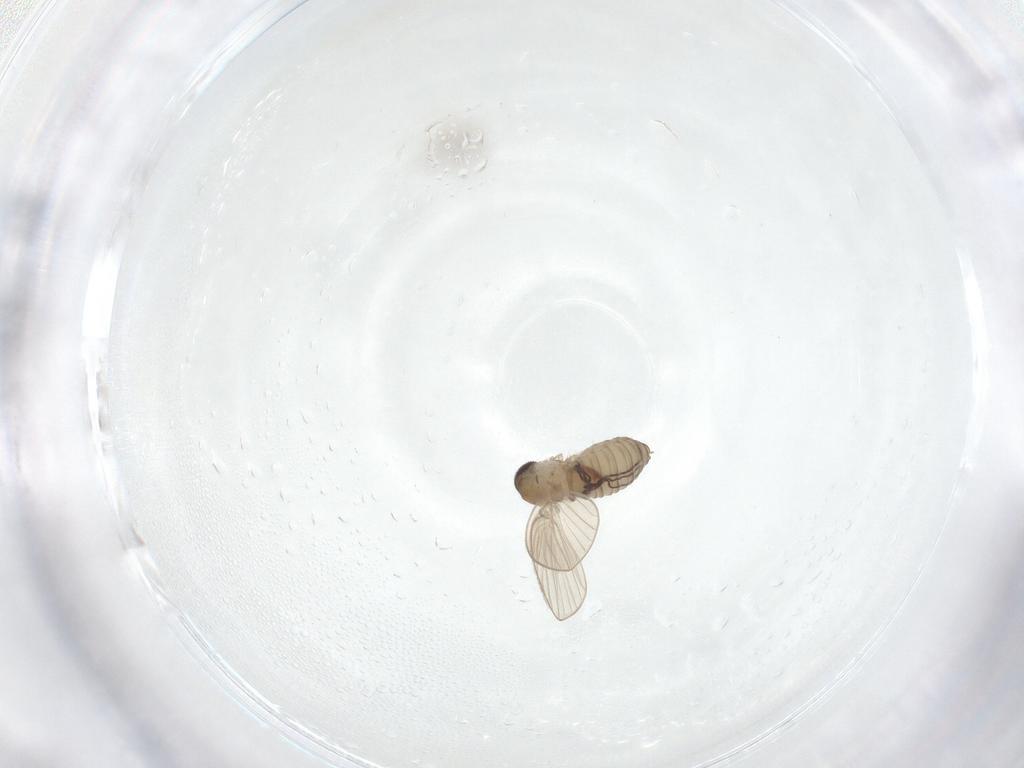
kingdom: Animalia
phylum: Arthropoda
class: Insecta
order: Diptera
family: Psychodidae
